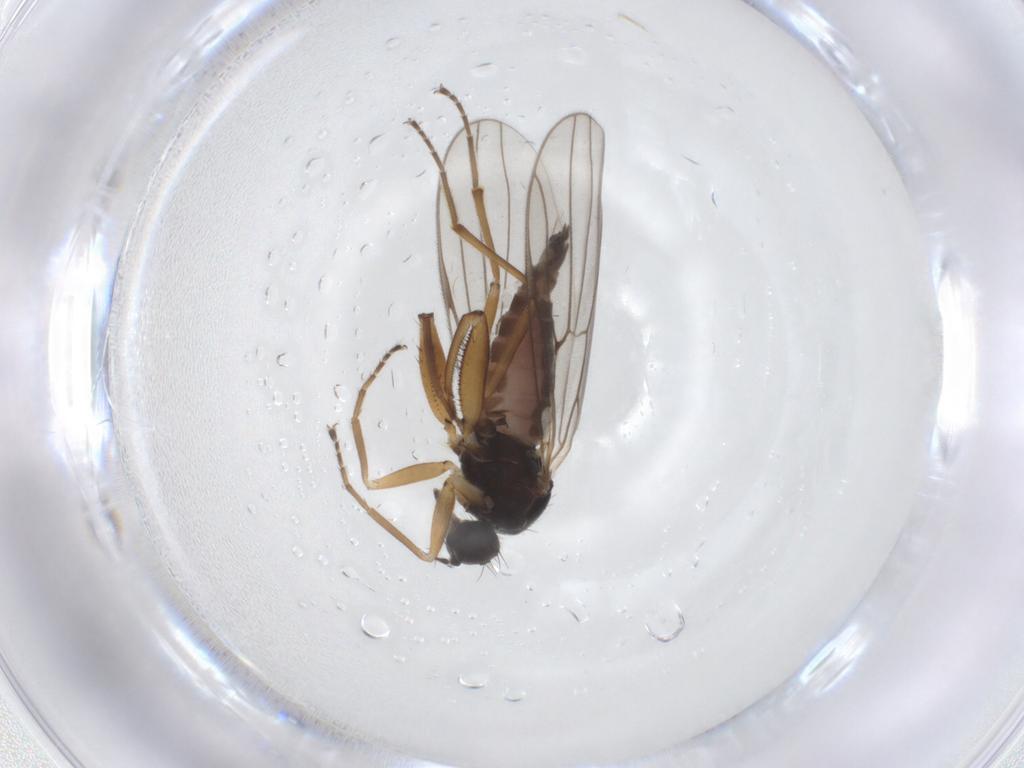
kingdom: Animalia
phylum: Arthropoda
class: Insecta
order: Diptera
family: Hybotidae
